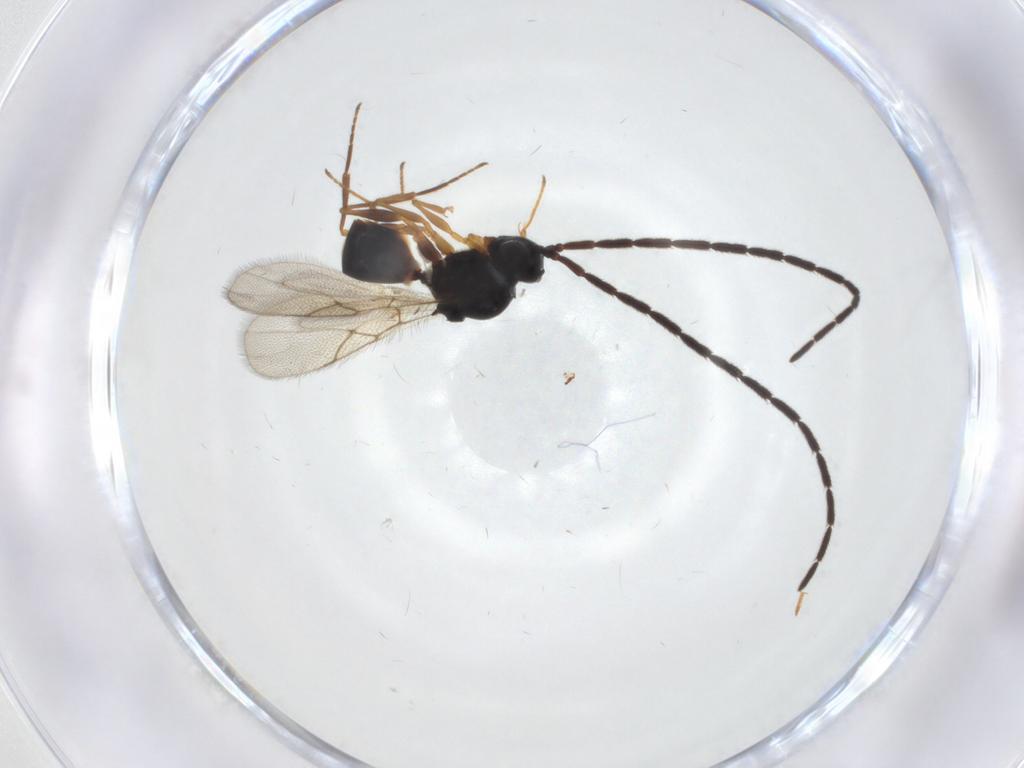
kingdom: Animalia
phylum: Arthropoda
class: Insecta
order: Hymenoptera
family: Figitidae
